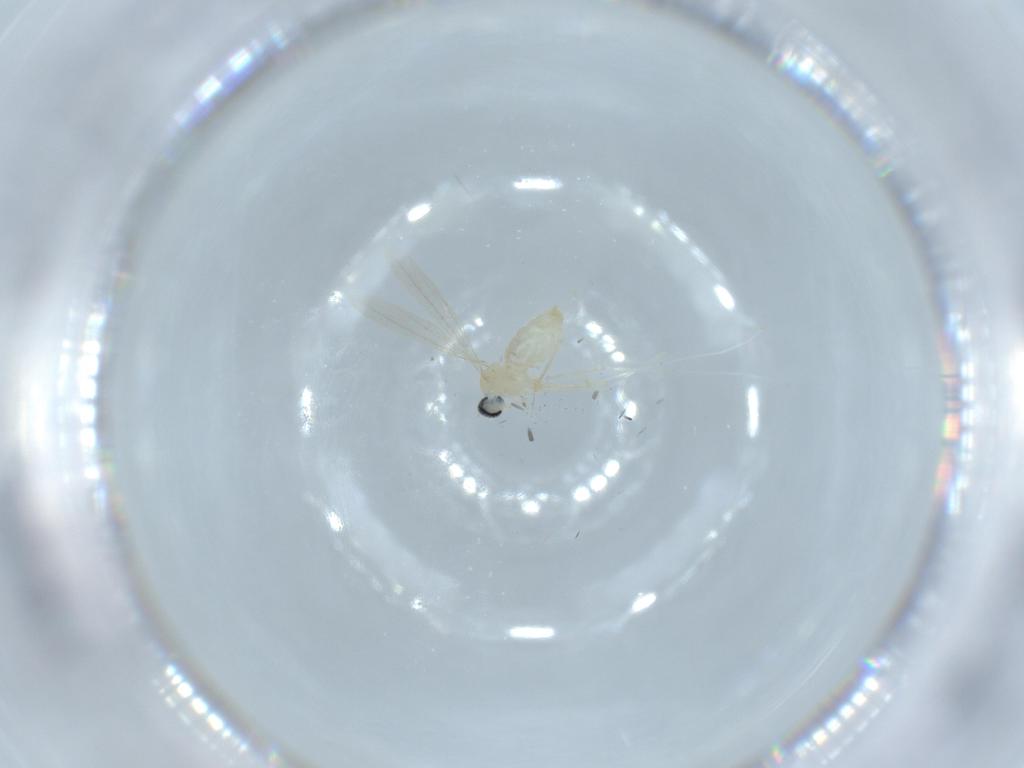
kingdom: Animalia
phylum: Arthropoda
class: Insecta
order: Diptera
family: Cecidomyiidae
